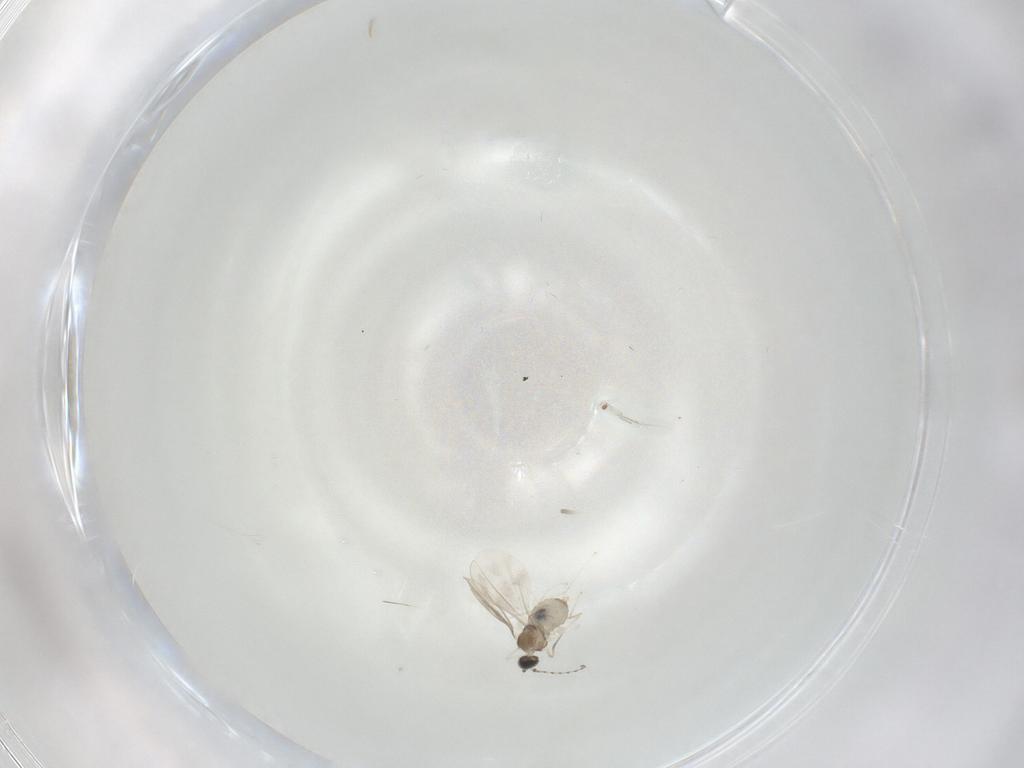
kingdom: Animalia
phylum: Arthropoda
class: Insecta
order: Diptera
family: Cecidomyiidae
